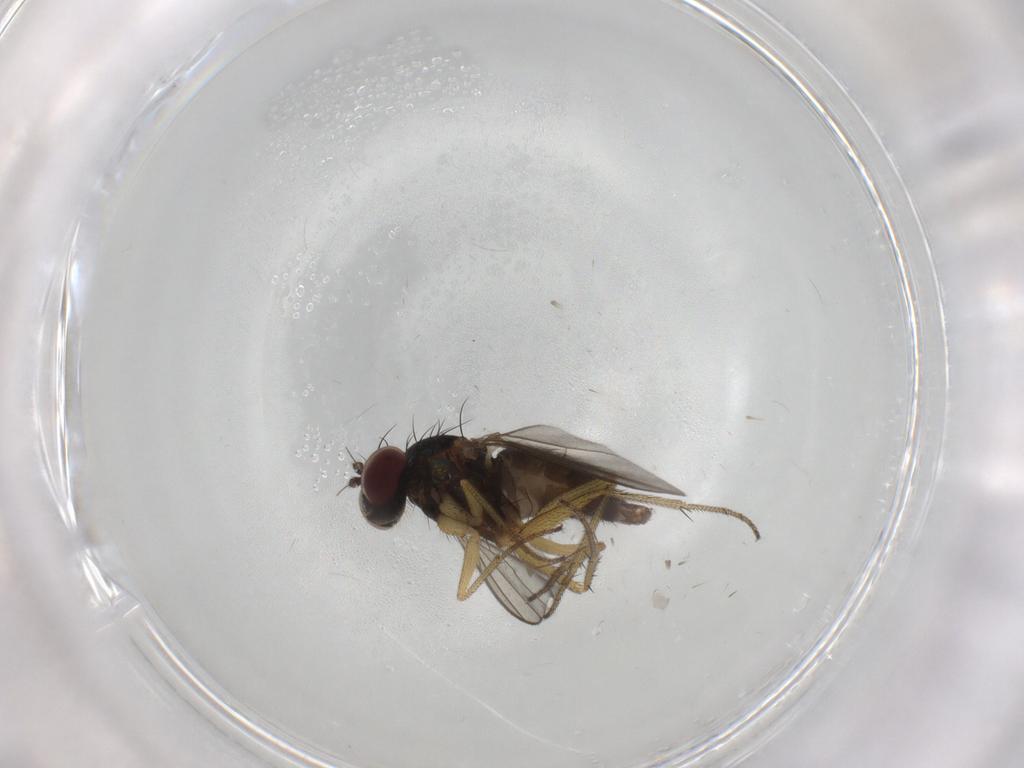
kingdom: Animalia
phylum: Arthropoda
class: Insecta
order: Diptera
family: Dolichopodidae
